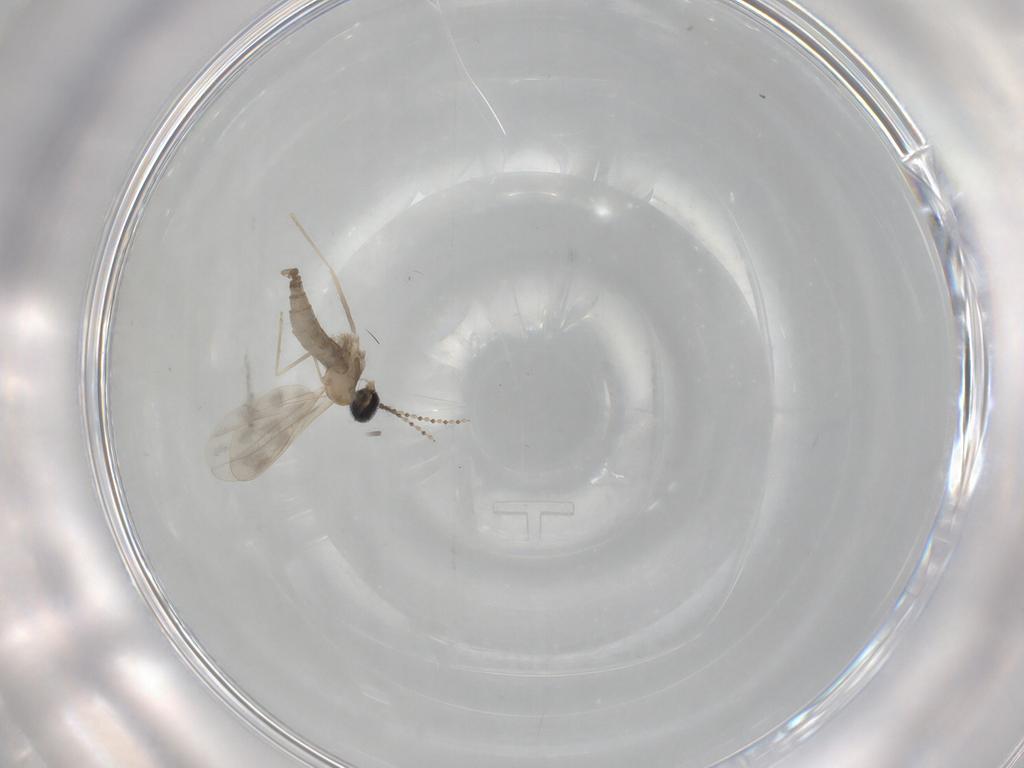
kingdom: Animalia
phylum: Arthropoda
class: Insecta
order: Diptera
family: Cecidomyiidae
